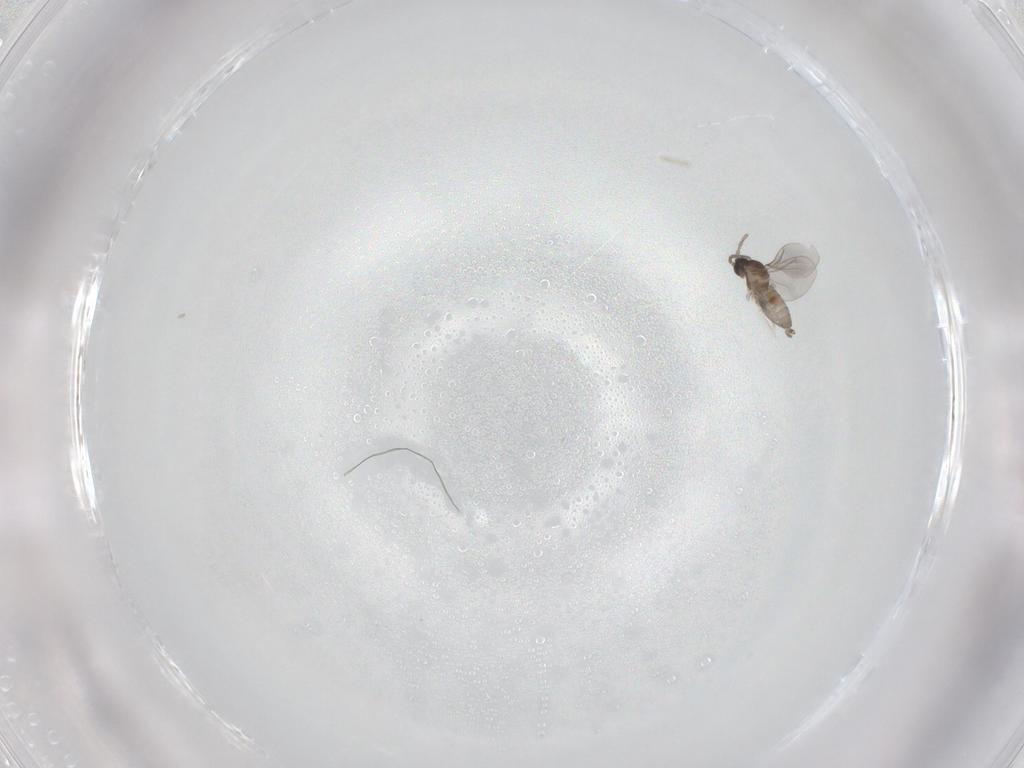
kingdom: Animalia
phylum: Arthropoda
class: Insecta
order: Diptera
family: Cecidomyiidae
